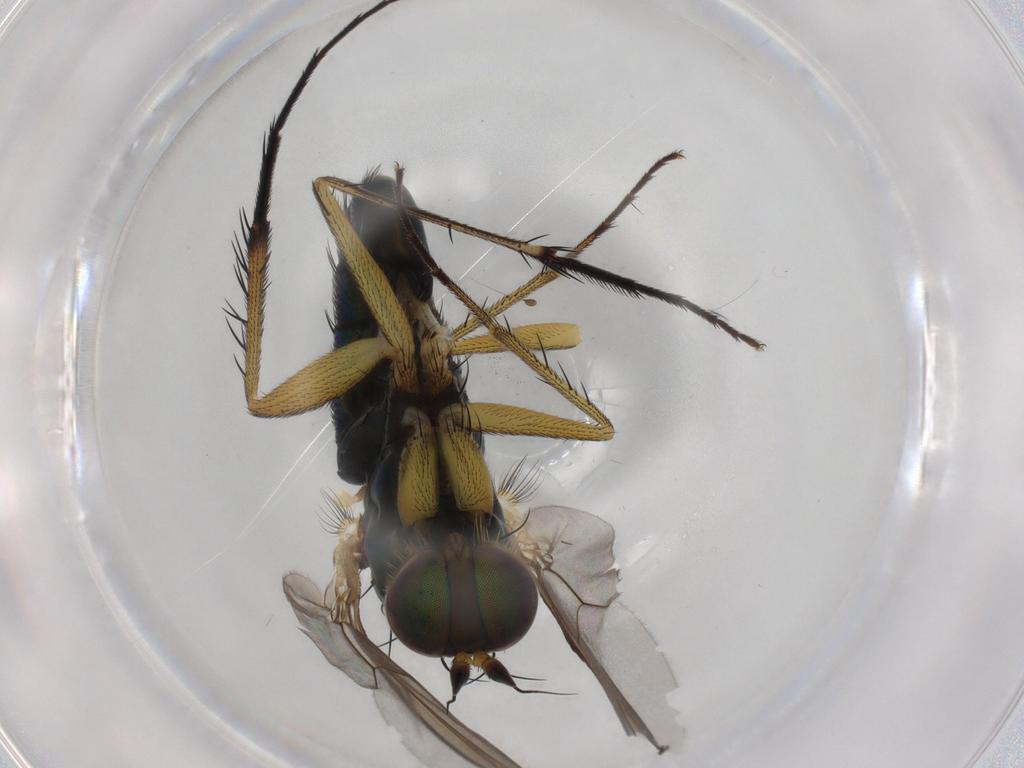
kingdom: Animalia
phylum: Arthropoda
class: Insecta
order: Diptera
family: Dolichopodidae
